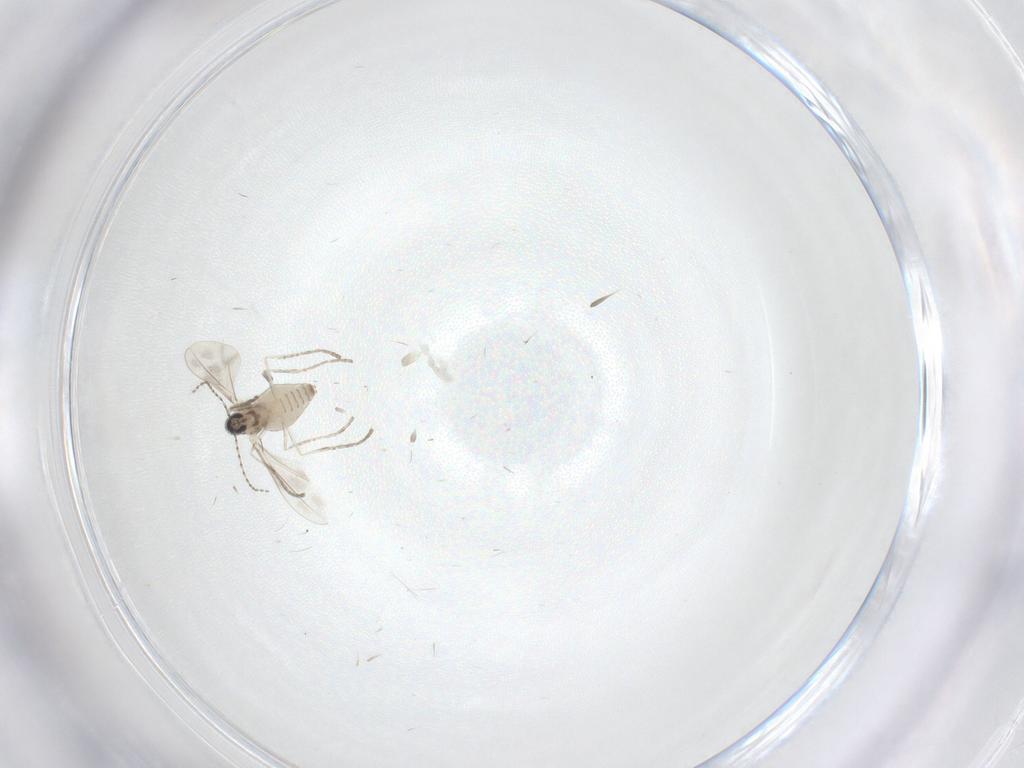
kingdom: Animalia
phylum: Arthropoda
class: Insecta
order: Diptera
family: Cecidomyiidae
